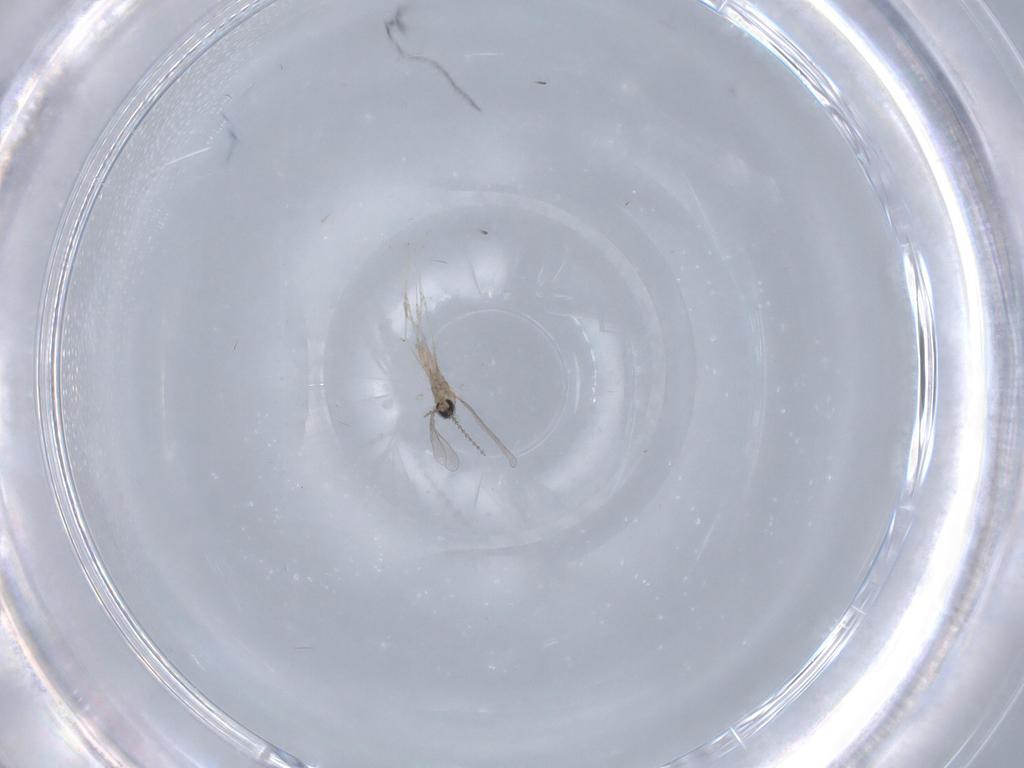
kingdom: Animalia
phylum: Arthropoda
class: Insecta
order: Diptera
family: Cecidomyiidae
